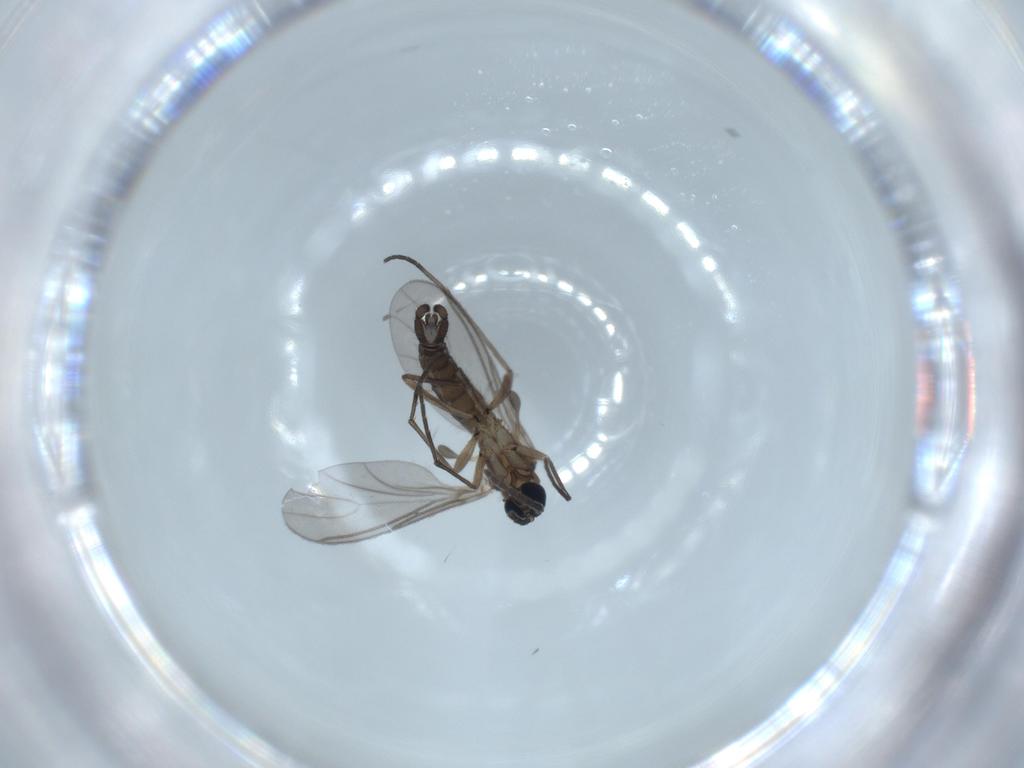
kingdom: Animalia
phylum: Arthropoda
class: Insecta
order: Diptera
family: Sciaridae
